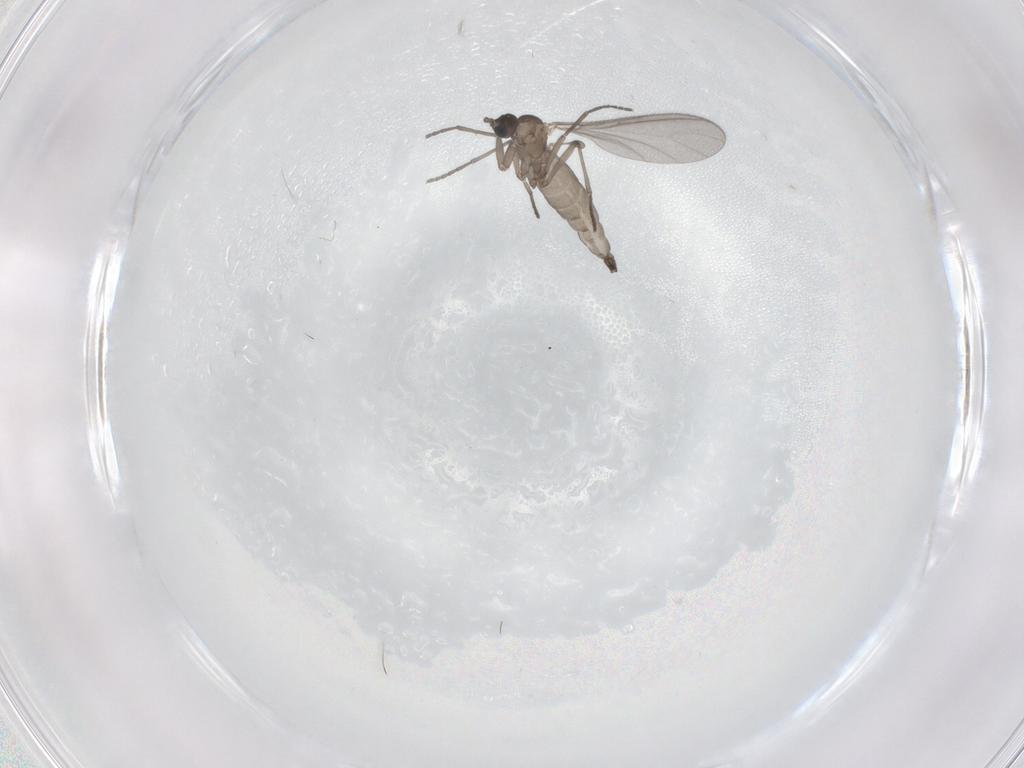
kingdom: Animalia
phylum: Arthropoda
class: Insecta
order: Diptera
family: Sciaridae
